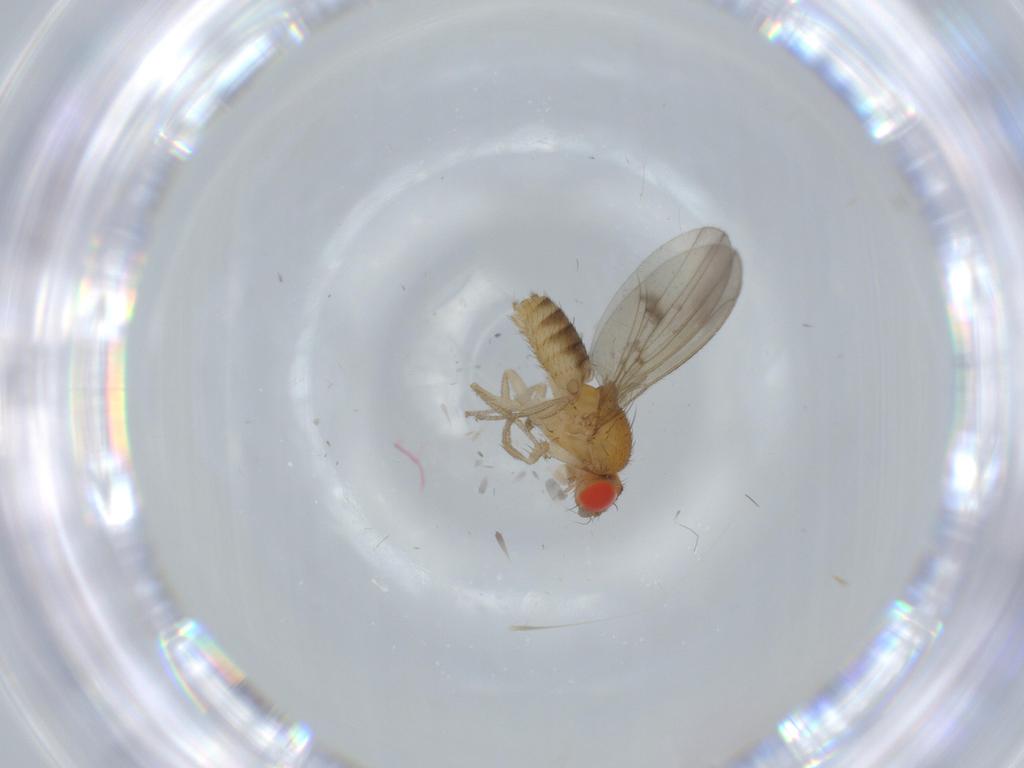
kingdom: Animalia
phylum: Arthropoda
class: Insecta
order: Diptera
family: Drosophilidae
